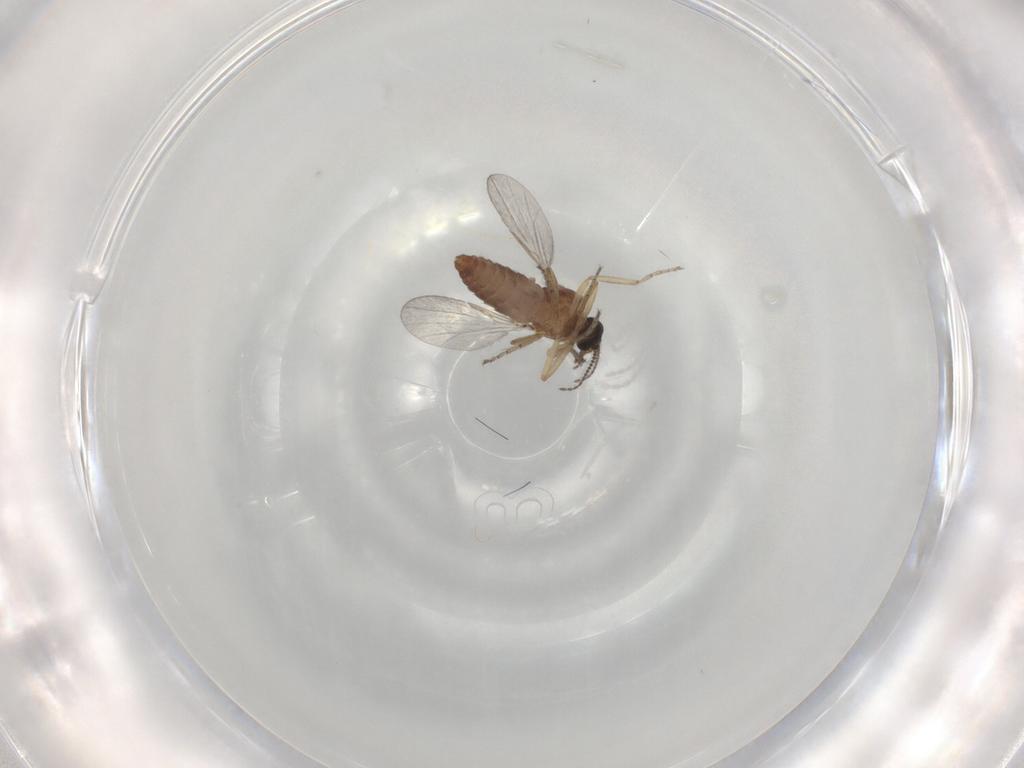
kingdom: Animalia
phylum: Arthropoda
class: Insecta
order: Diptera
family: Ceratopogonidae
